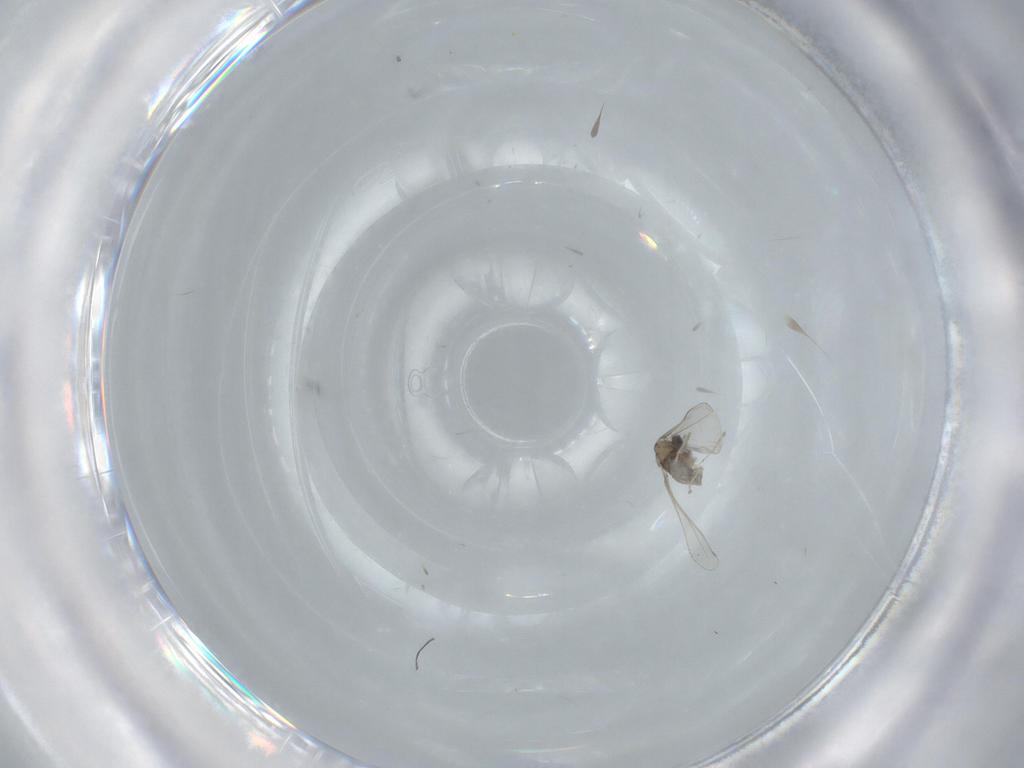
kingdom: Animalia
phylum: Arthropoda
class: Insecta
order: Diptera
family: Cecidomyiidae
